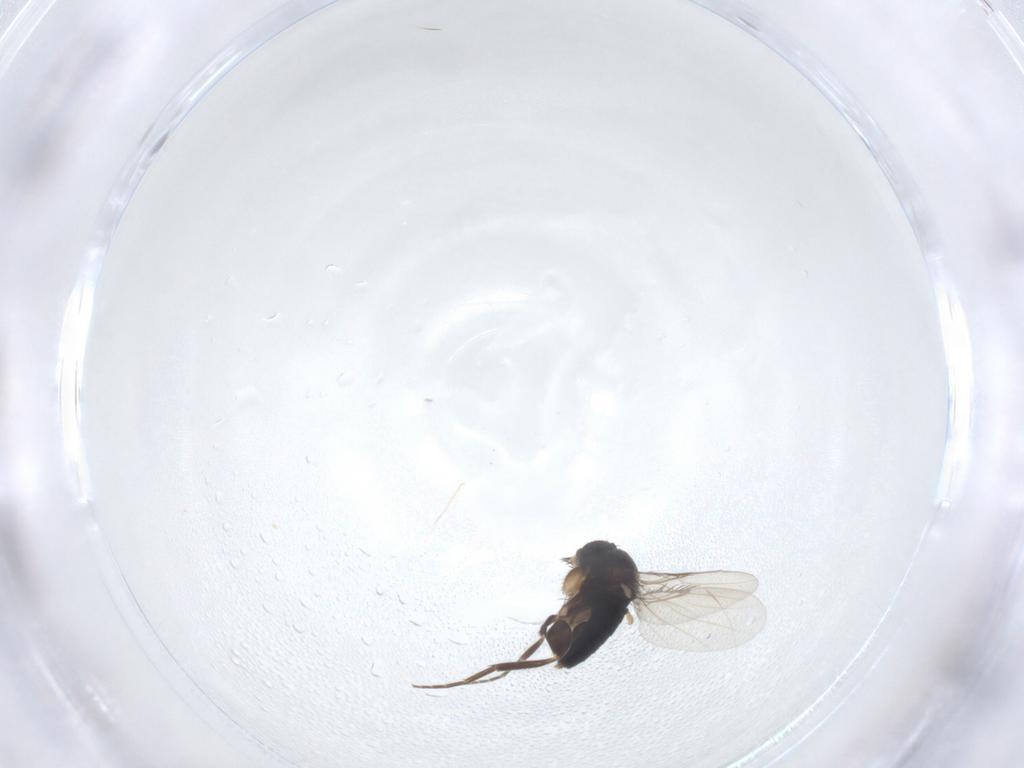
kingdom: Animalia
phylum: Arthropoda
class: Insecta
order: Diptera
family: Phoridae
